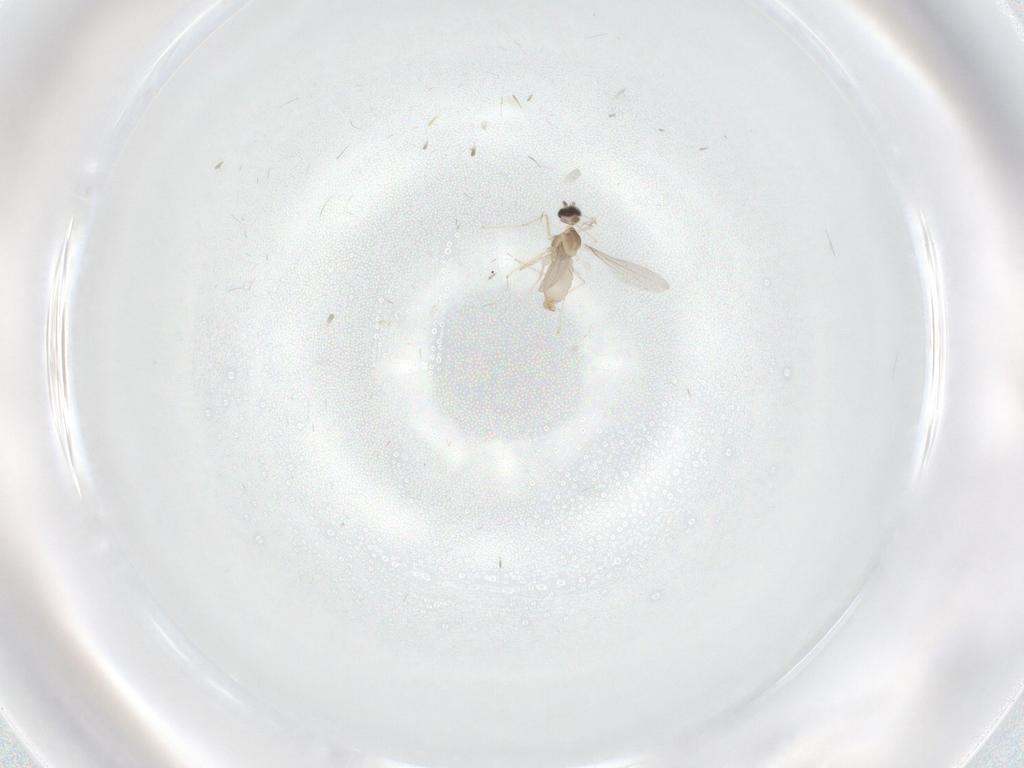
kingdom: Animalia
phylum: Arthropoda
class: Insecta
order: Diptera
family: Cecidomyiidae
